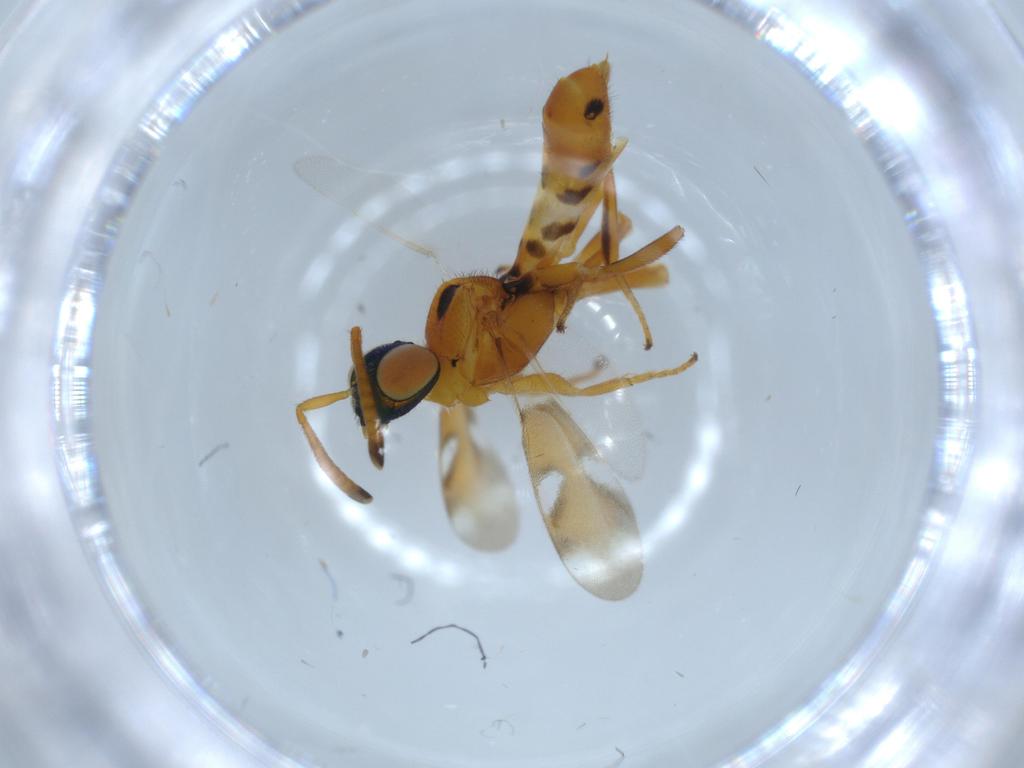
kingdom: Animalia
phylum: Arthropoda
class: Insecta
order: Hymenoptera
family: Eupelmidae
